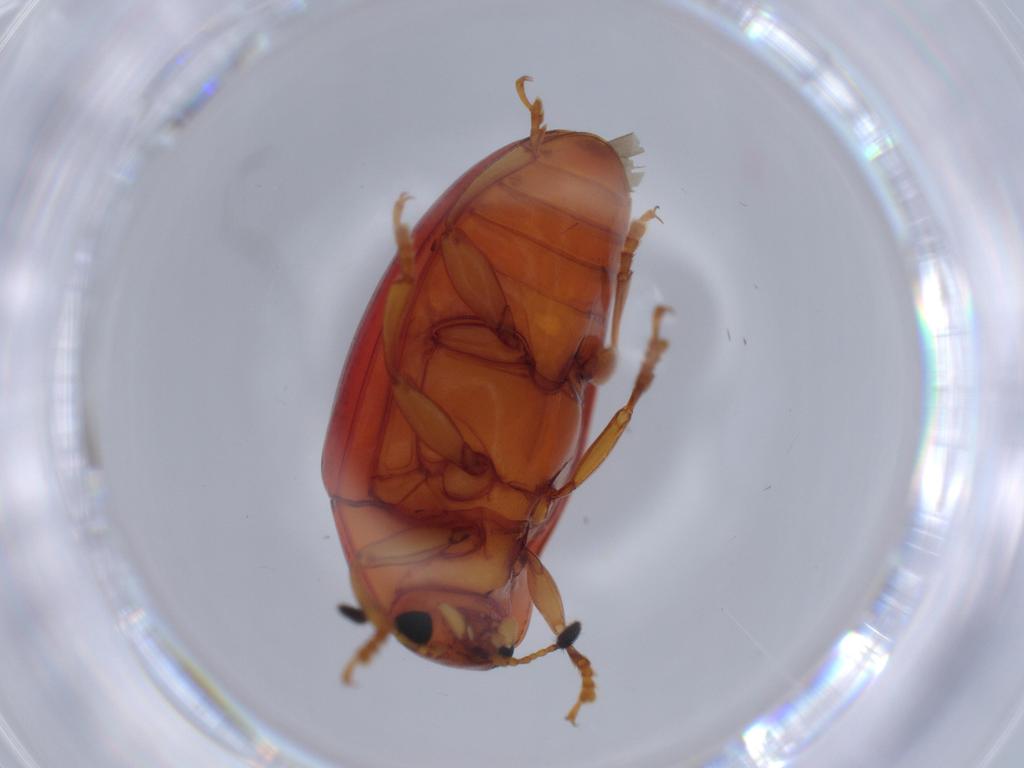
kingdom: Animalia
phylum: Arthropoda
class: Insecta
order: Coleoptera
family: Erotylidae
